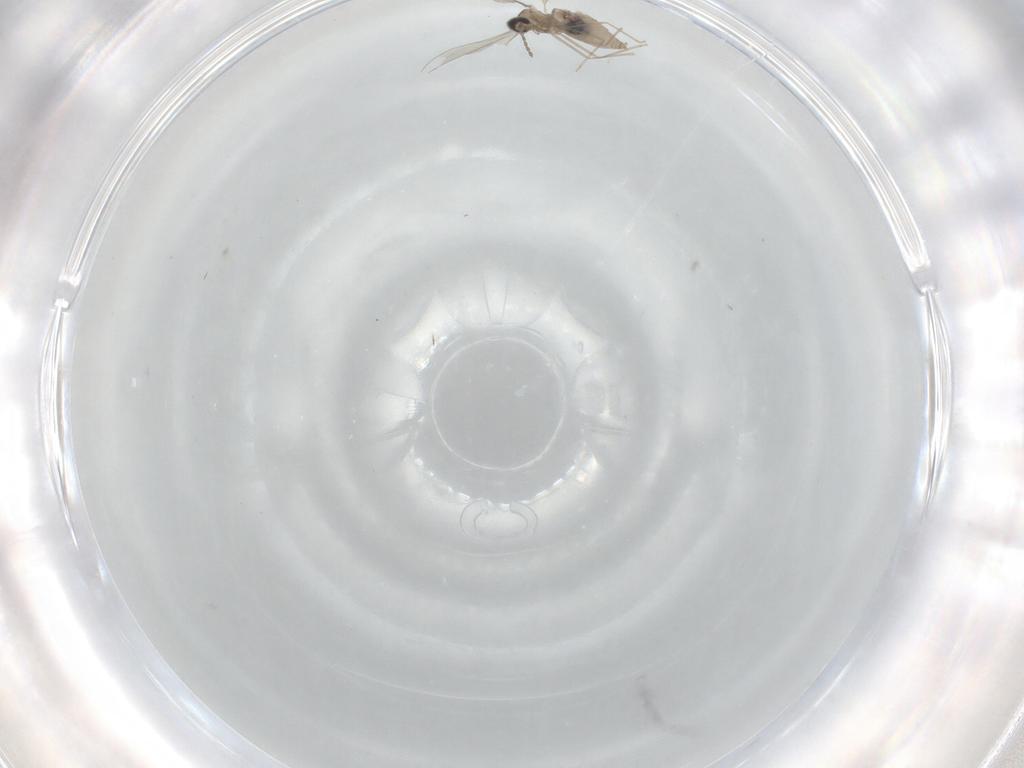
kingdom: Animalia
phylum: Arthropoda
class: Insecta
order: Diptera
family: Cecidomyiidae
